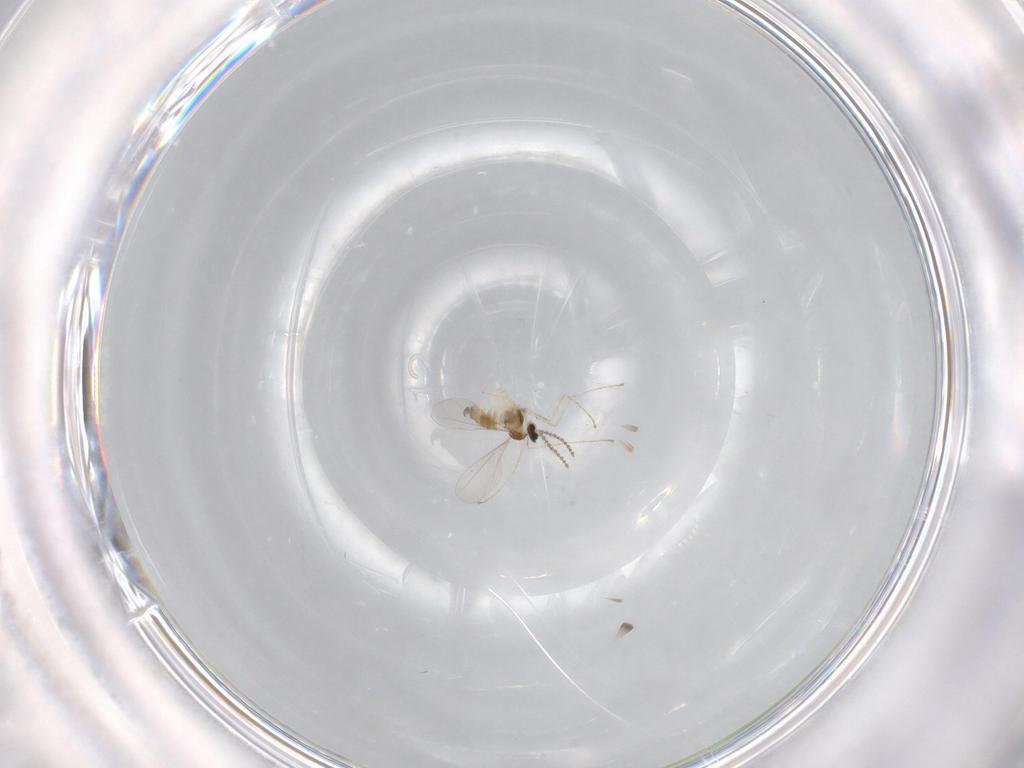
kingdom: Animalia
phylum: Arthropoda
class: Insecta
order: Diptera
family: Cecidomyiidae
